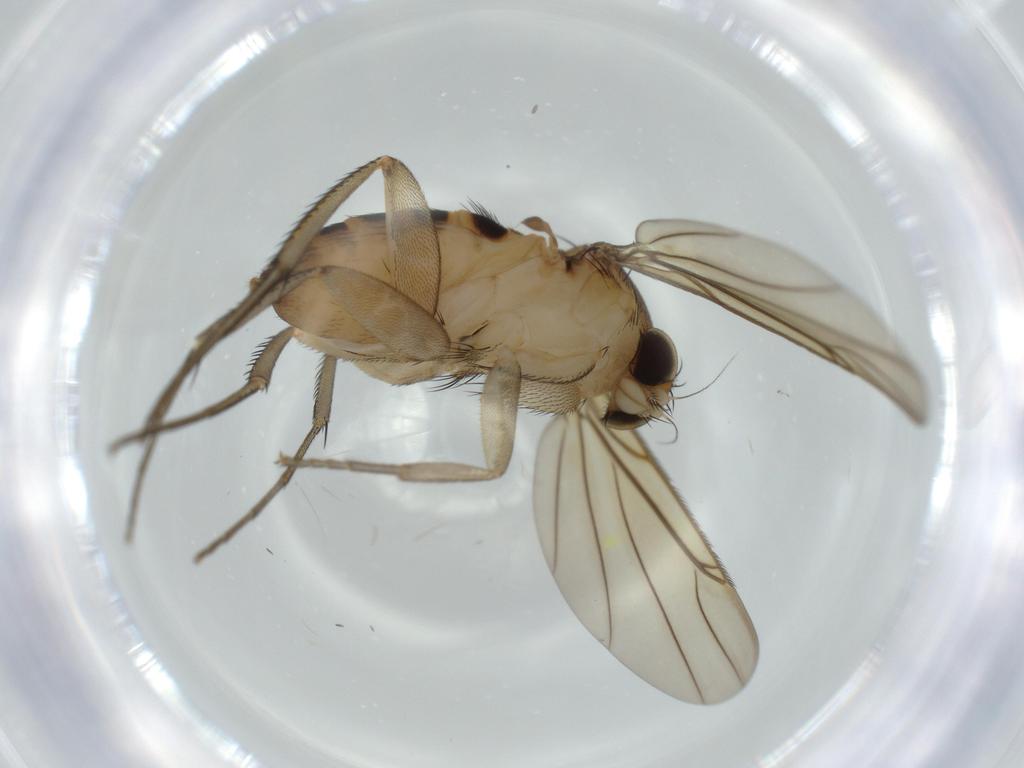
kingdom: Animalia
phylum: Arthropoda
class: Insecta
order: Diptera
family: Phoridae
